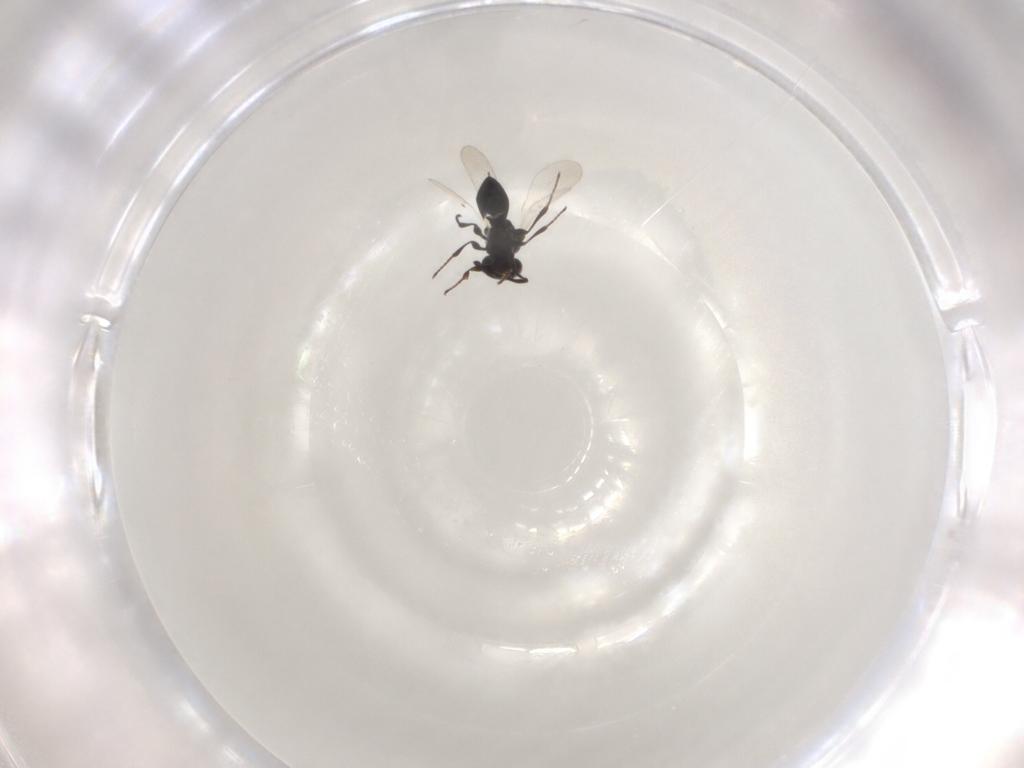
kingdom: Animalia
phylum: Arthropoda
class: Insecta
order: Hymenoptera
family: Platygastridae
